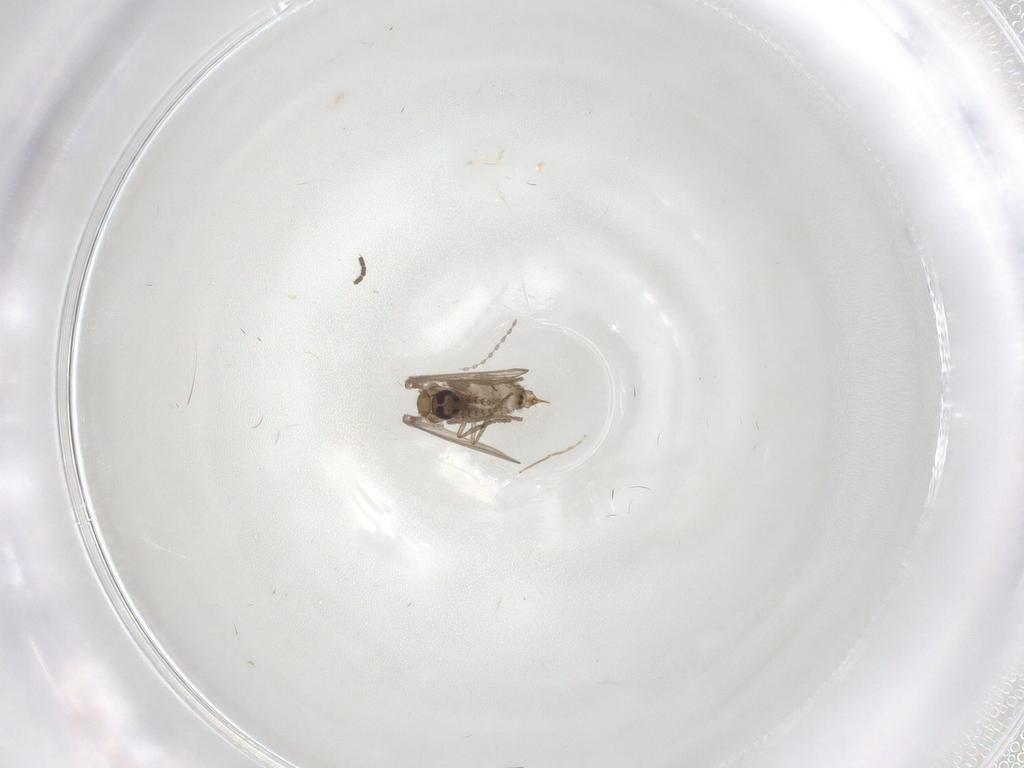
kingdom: Animalia
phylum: Arthropoda
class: Insecta
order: Diptera
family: Psychodidae
